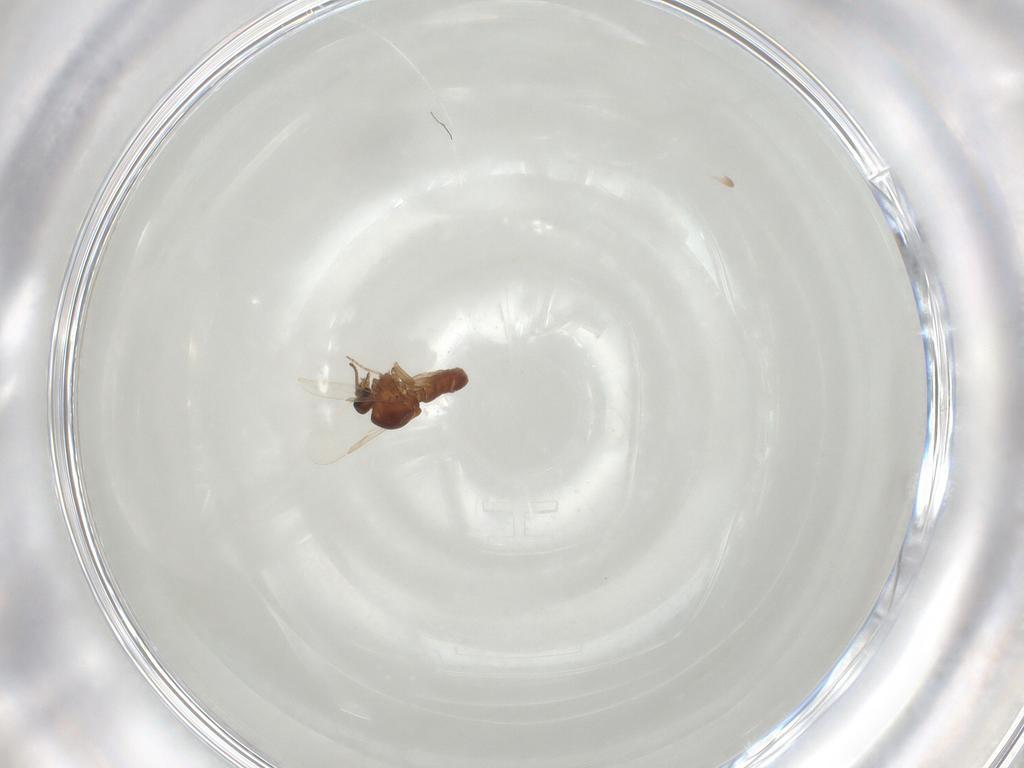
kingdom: Animalia
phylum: Arthropoda
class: Insecta
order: Diptera
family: Ceratopogonidae
